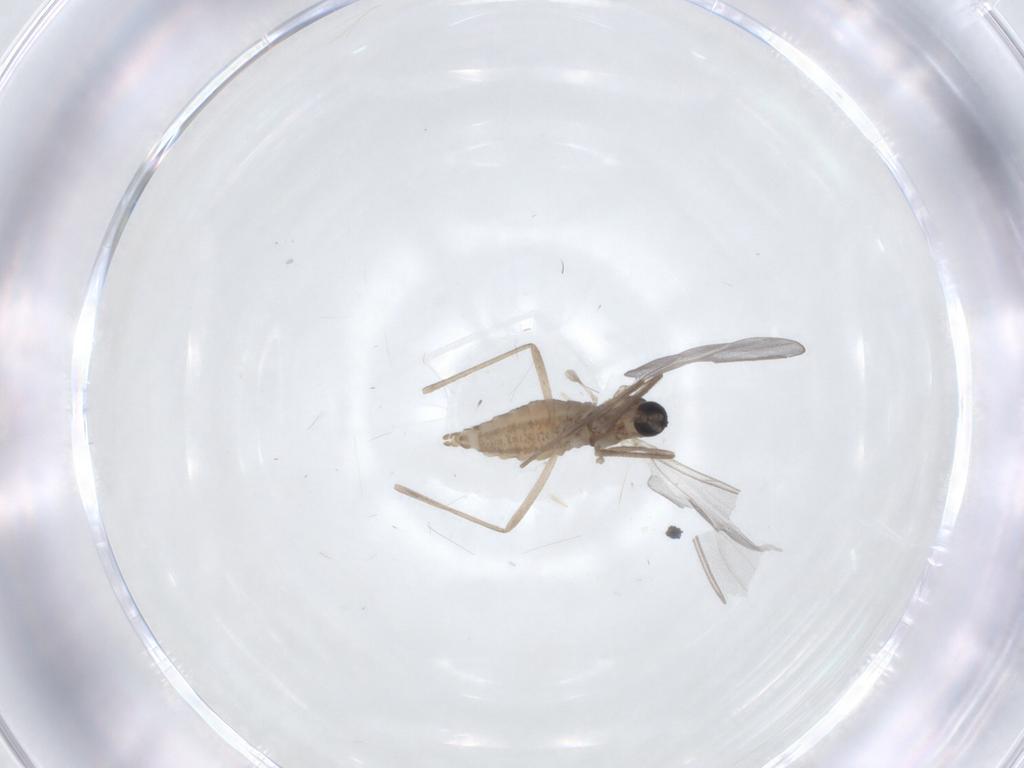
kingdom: Animalia
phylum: Arthropoda
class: Insecta
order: Diptera
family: Cecidomyiidae
